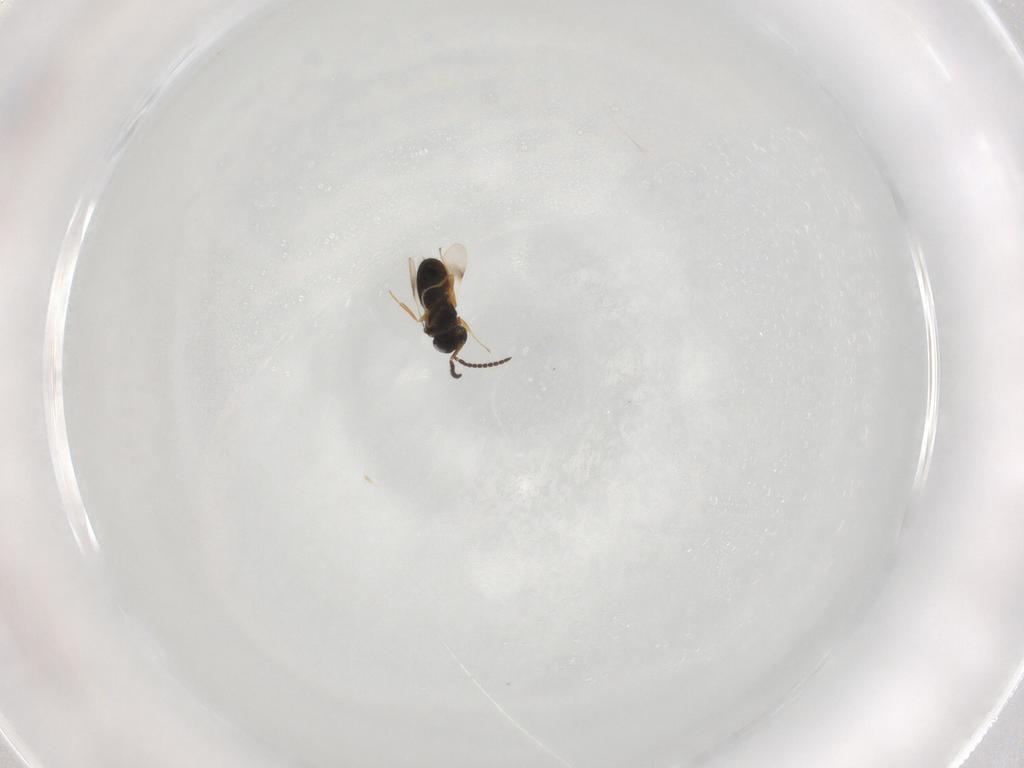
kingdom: Animalia
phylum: Arthropoda
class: Insecta
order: Hymenoptera
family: Scelionidae
